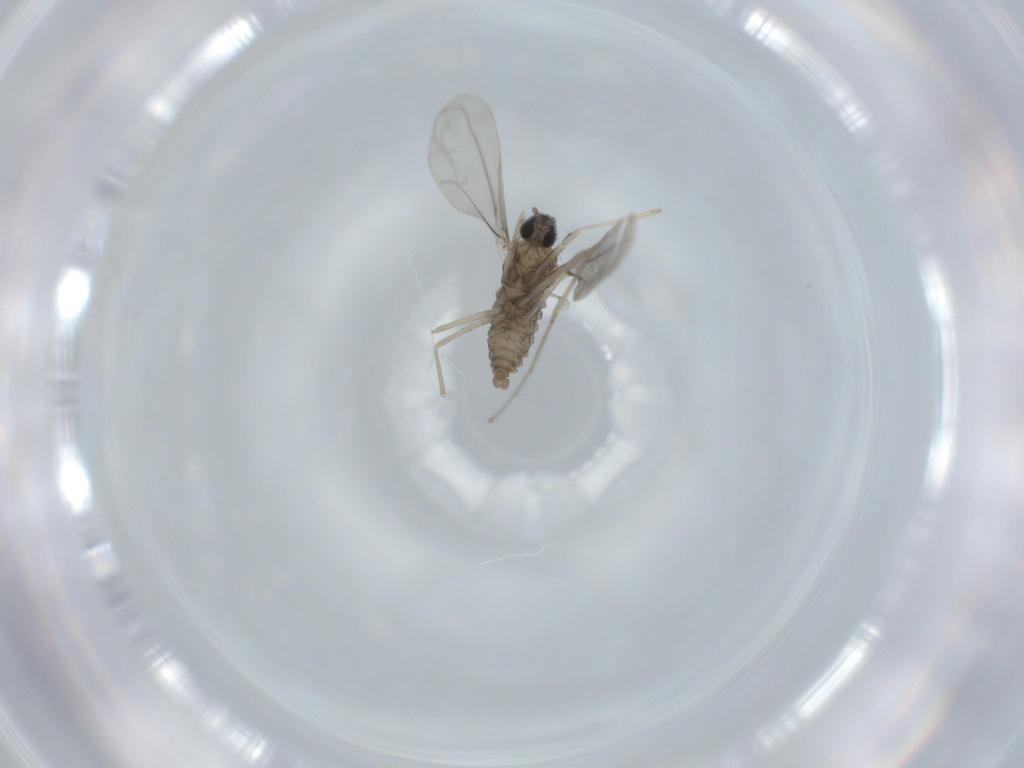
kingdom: Animalia
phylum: Arthropoda
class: Insecta
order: Diptera
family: Cecidomyiidae
